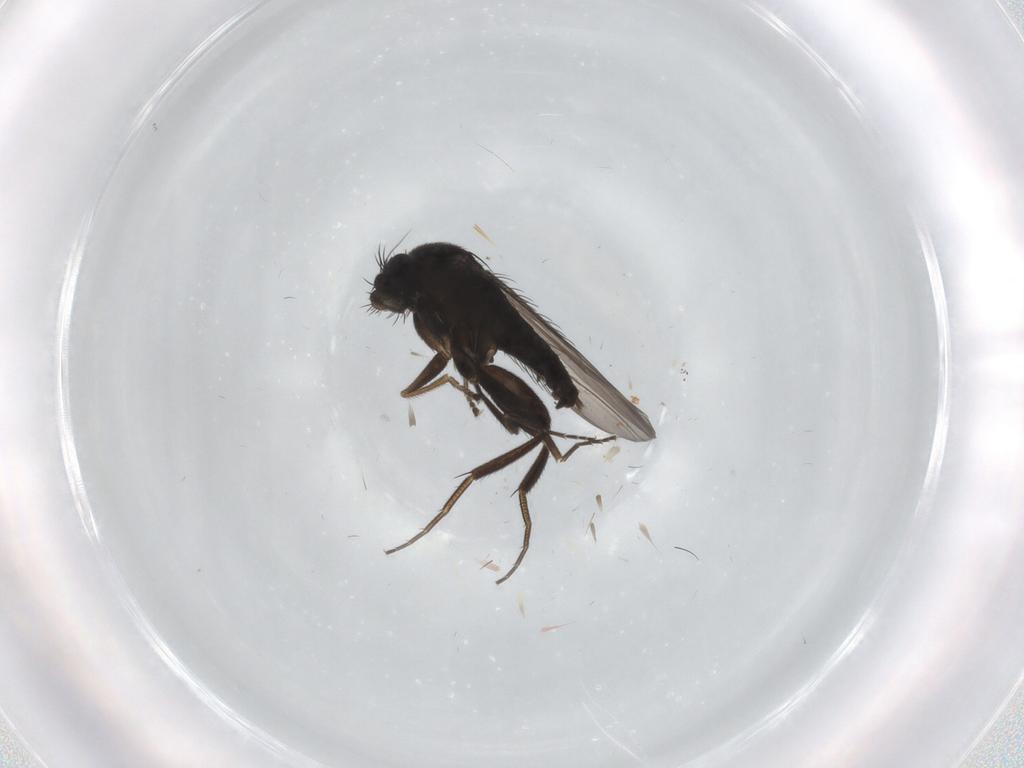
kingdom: Animalia
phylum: Arthropoda
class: Insecta
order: Diptera
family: Phoridae
